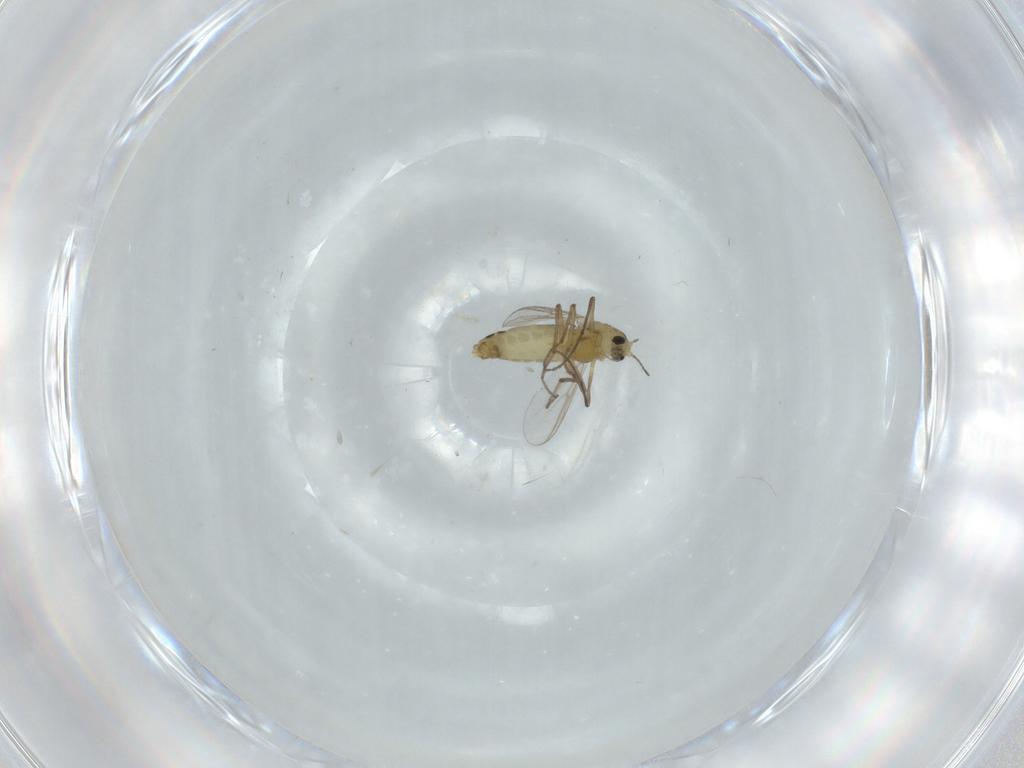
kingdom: Animalia
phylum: Arthropoda
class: Insecta
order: Diptera
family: Chironomidae
